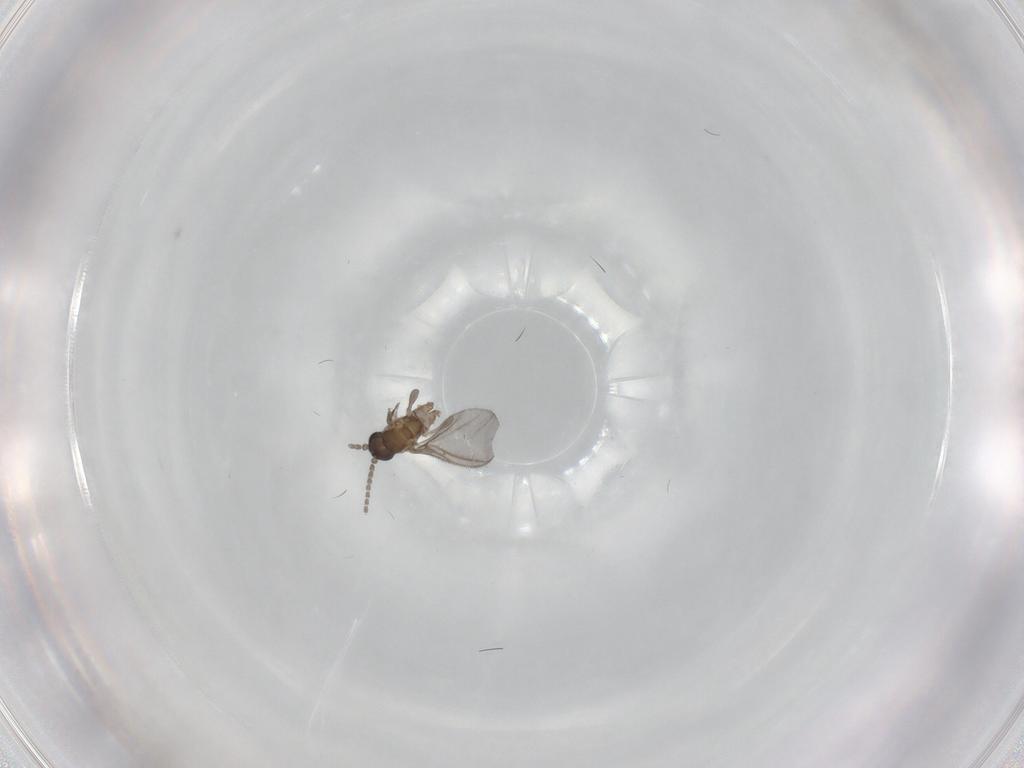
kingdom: Animalia
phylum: Arthropoda
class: Insecta
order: Diptera
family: Sciaridae
